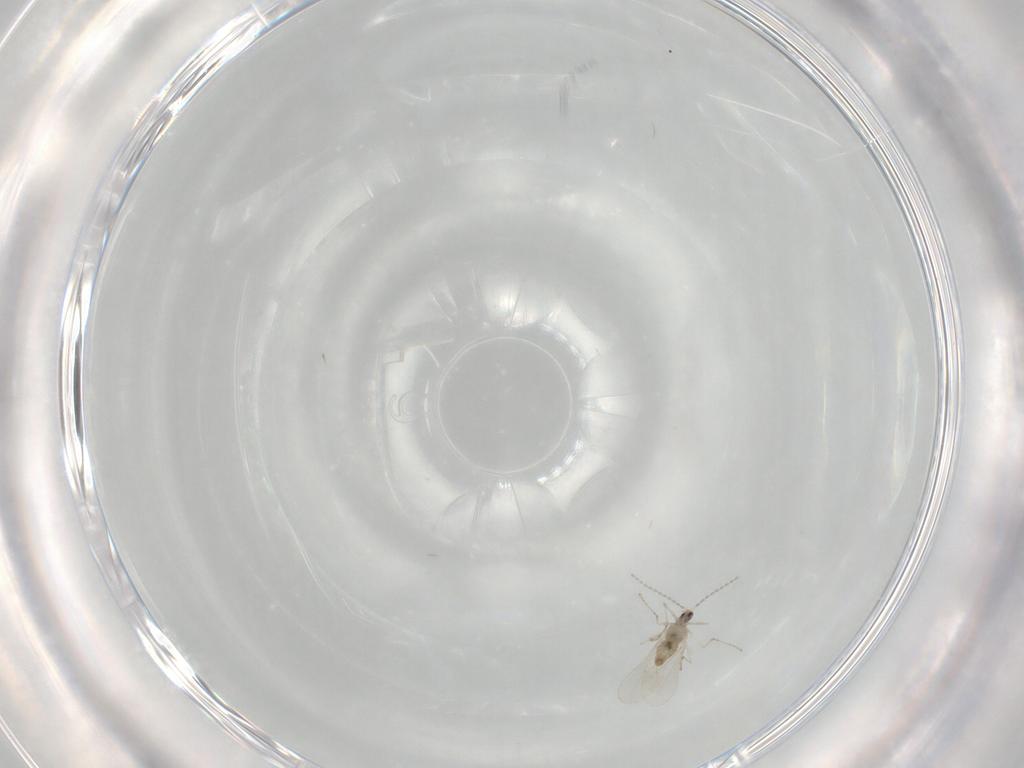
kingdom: Animalia
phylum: Arthropoda
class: Insecta
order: Diptera
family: Cecidomyiidae
